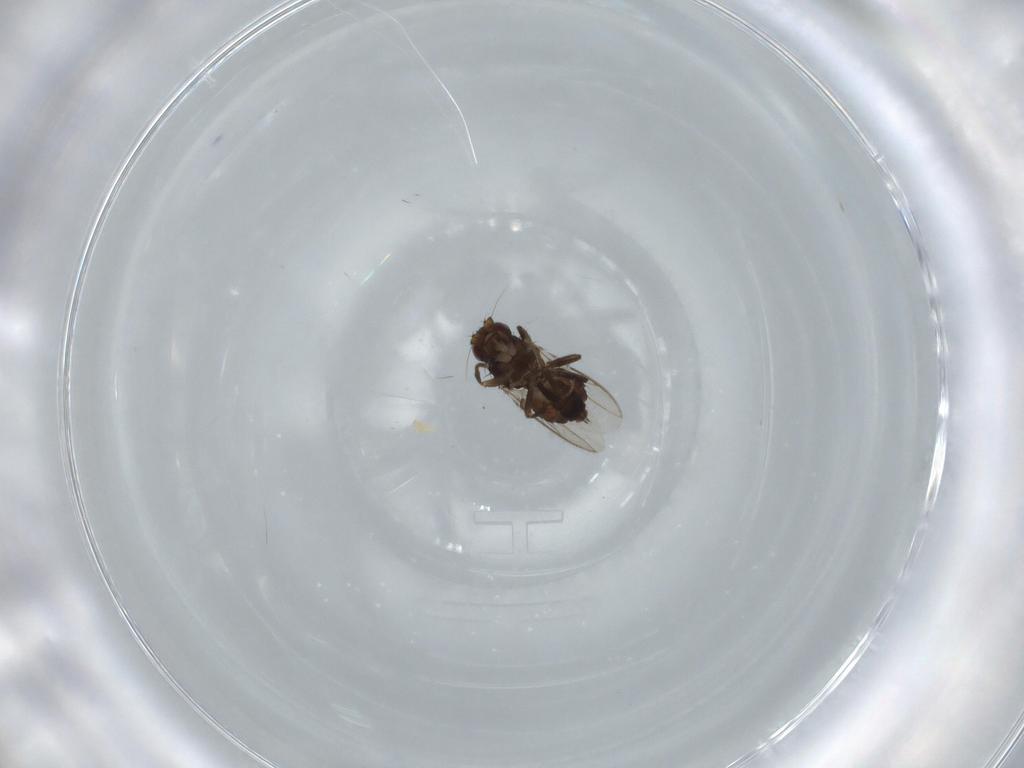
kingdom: Animalia
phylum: Arthropoda
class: Insecta
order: Diptera
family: Sphaeroceridae
